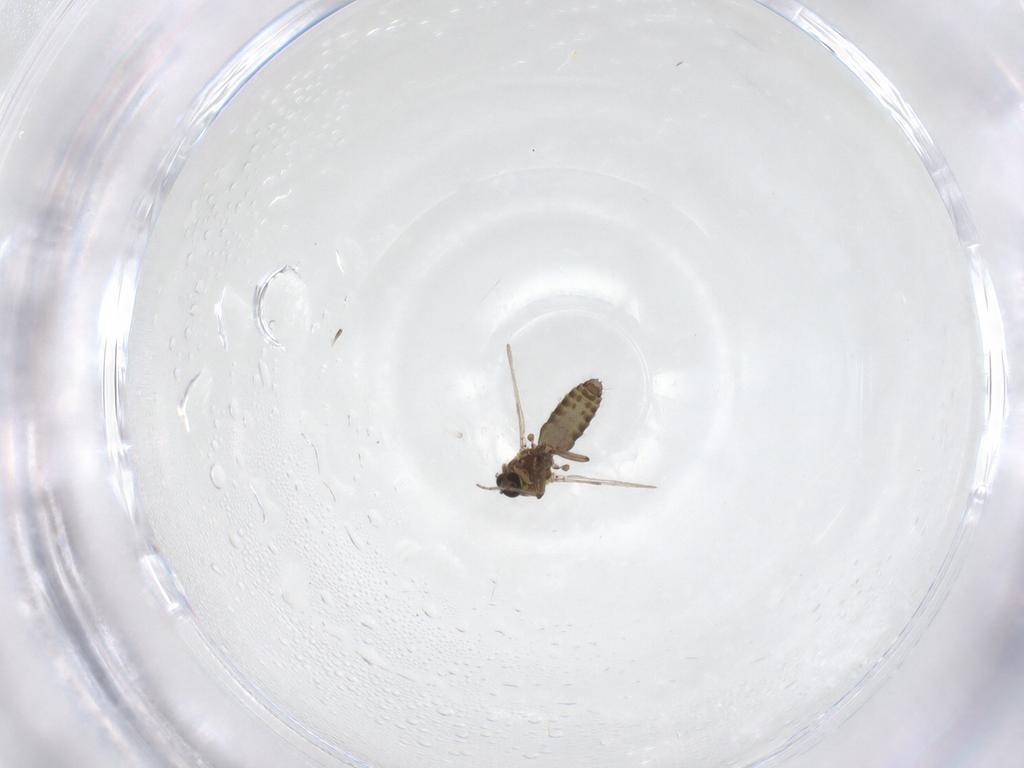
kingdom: Animalia
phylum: Arthropoda
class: Insecta
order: Diptera
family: Ceratopogonidae
